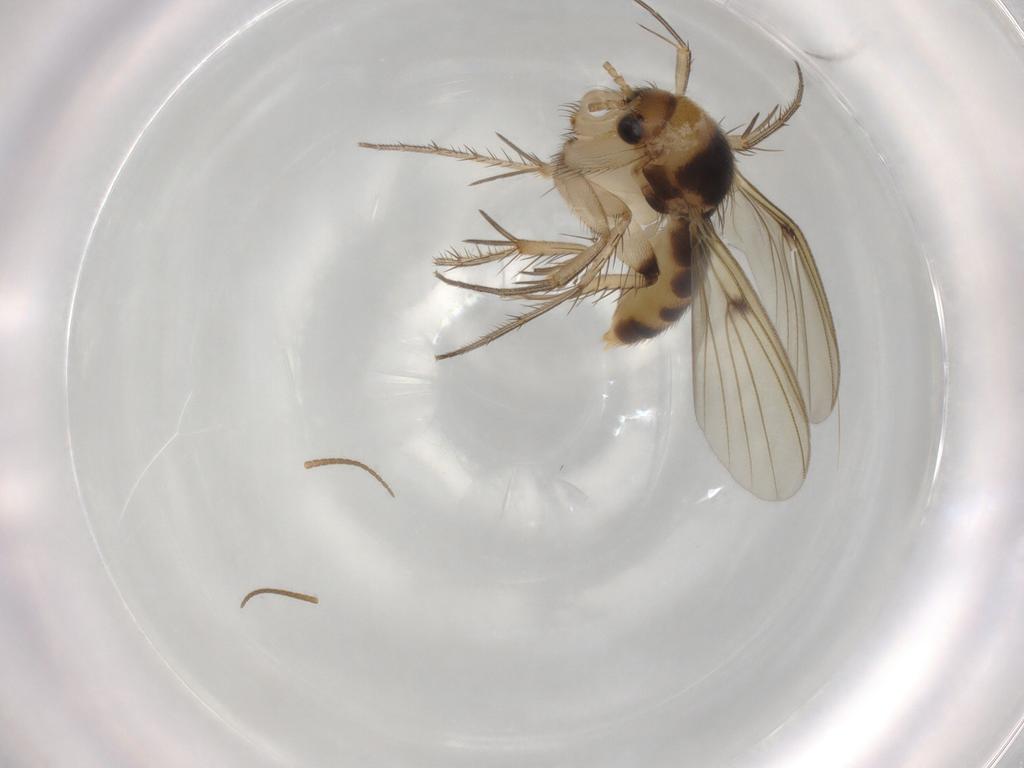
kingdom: Animalia
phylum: Arthropoda
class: Insecta
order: Diptera
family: Mycetophilidae
